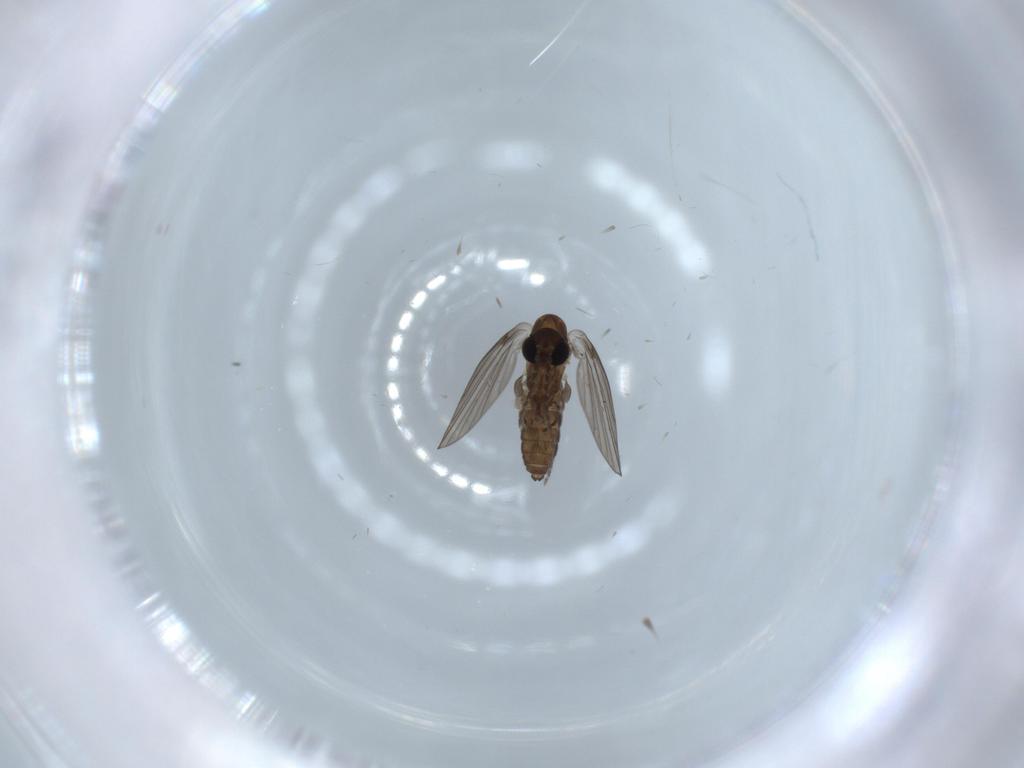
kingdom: Animalia
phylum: Arthropoda
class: Insecta
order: Diptera
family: Psychodidae
